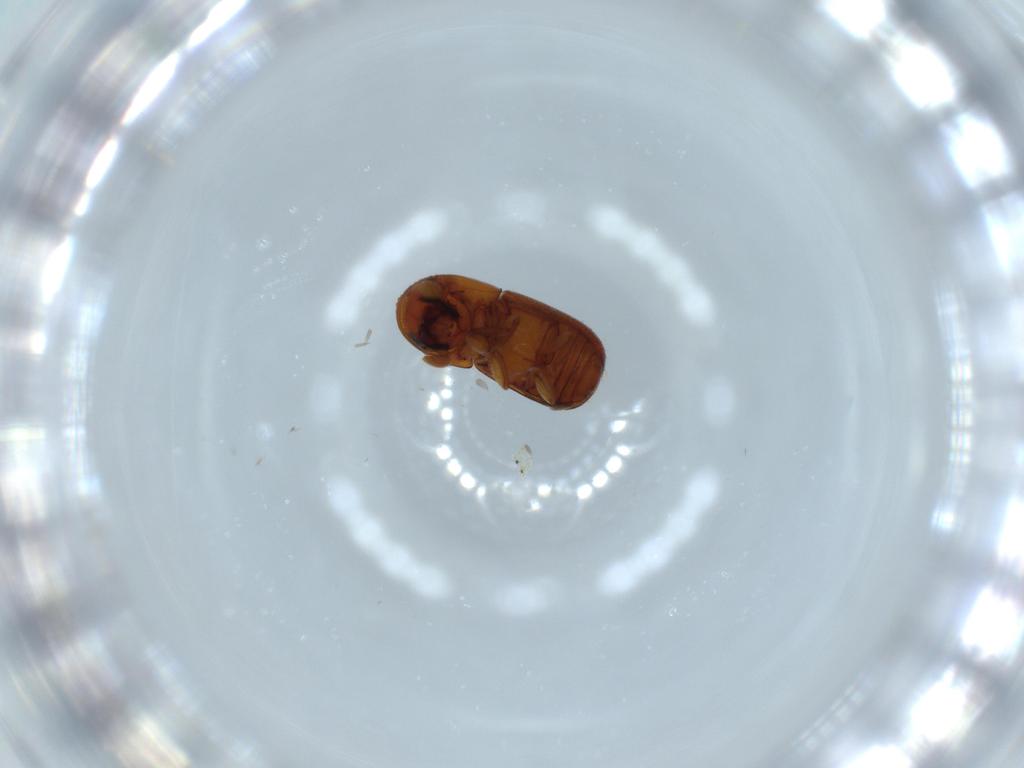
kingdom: Animalia
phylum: Arthropoda
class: Insecta
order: Coleoptera
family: Curculionidae
